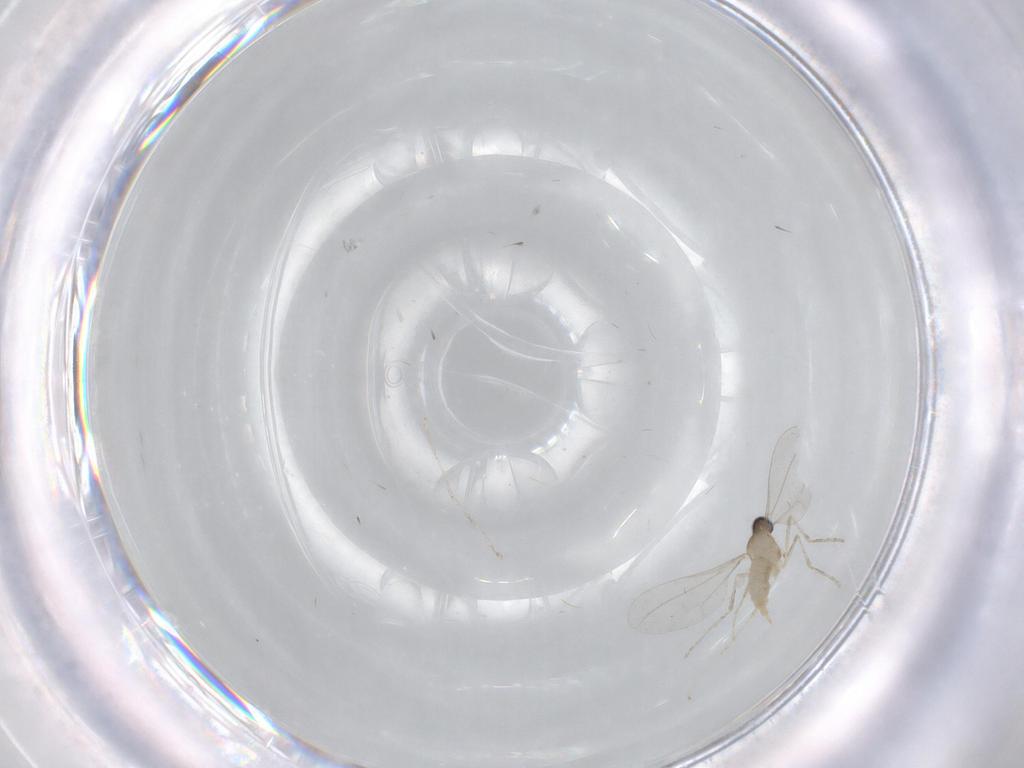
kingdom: Animalia
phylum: Arthropoda
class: Insecta
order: Diptera
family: Cecidomyiidae
